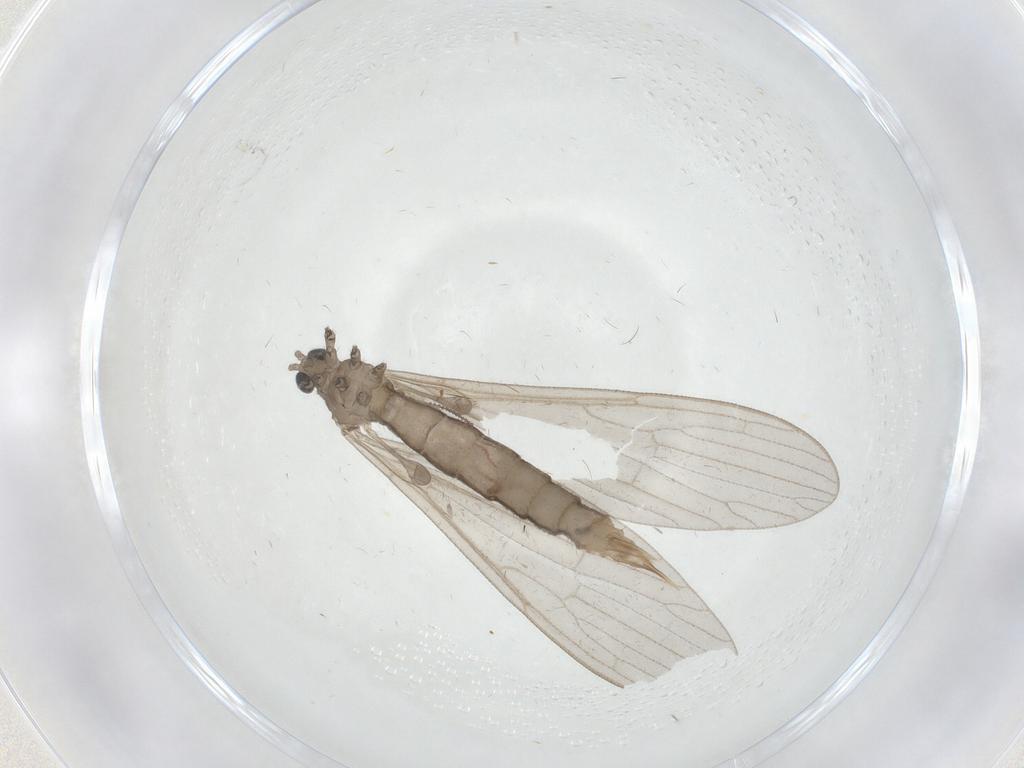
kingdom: Animalia
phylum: Arthropoda
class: Insecta
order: Diptera
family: Limoniidae
